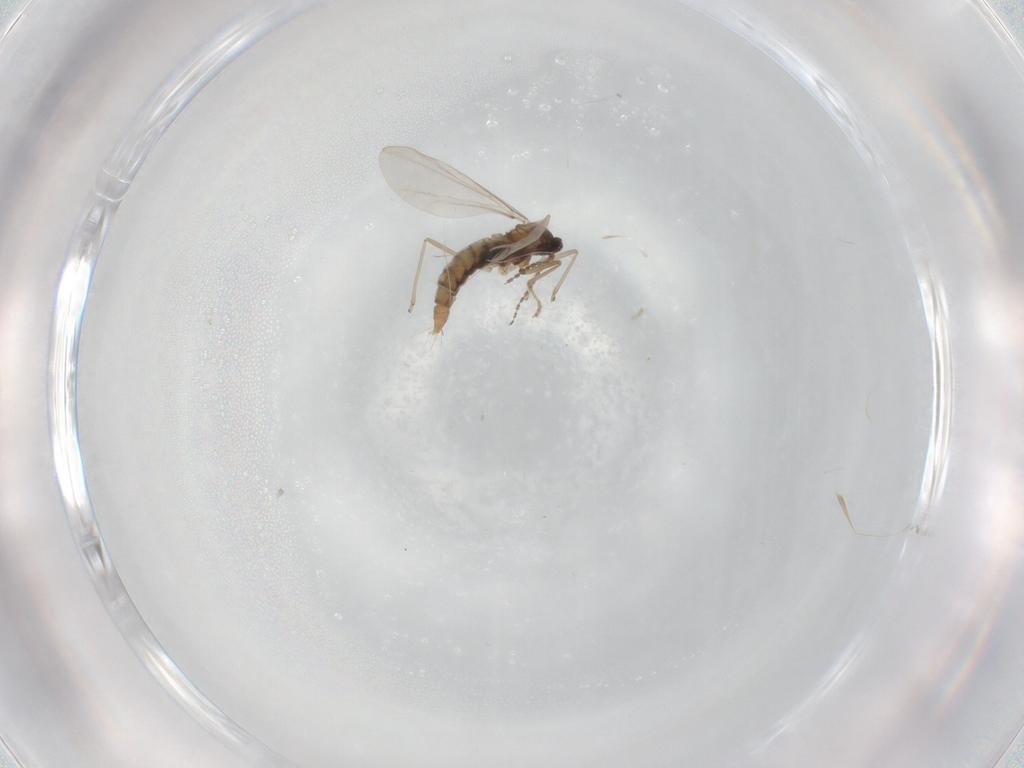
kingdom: Animalia
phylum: Arthropoda
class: Insecta
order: Diptera
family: Cecidomyiidae
